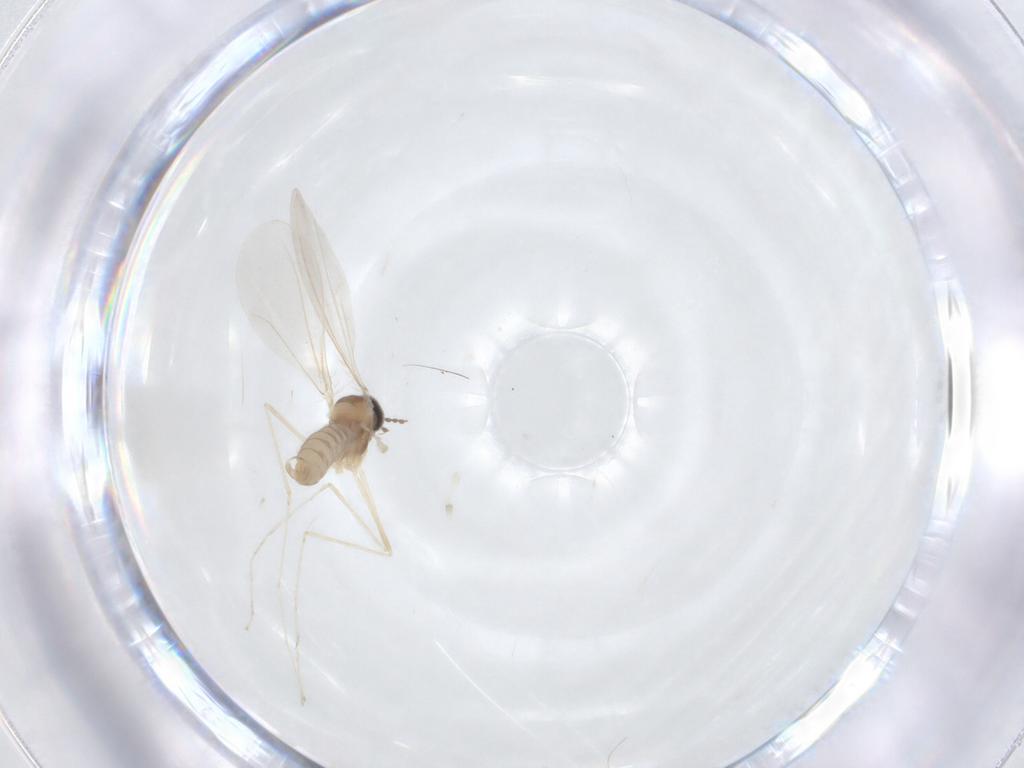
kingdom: Animalia
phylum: Arthropoda
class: Insecta
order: Diptera
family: Cecidomyiidae
